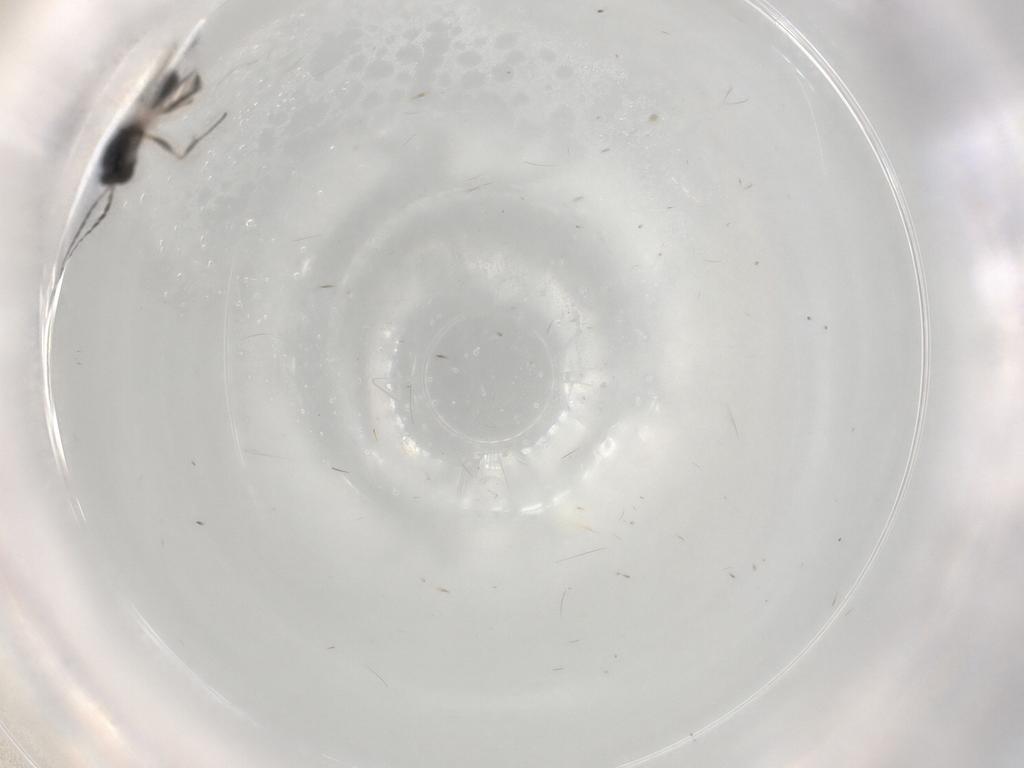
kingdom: Animalia
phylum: Arthropoda
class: Insecta
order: Hymenoptera
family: Figitidae
